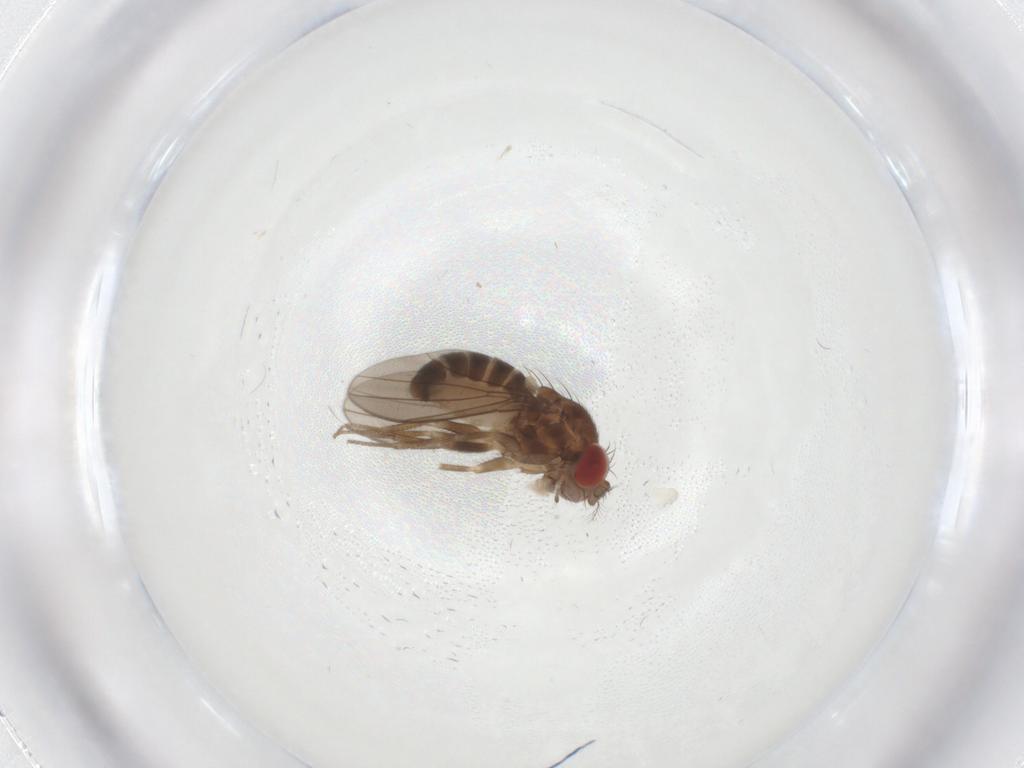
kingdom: Animalia
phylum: Arthropoda
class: Insecta
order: Diptera
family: Drosophilidae
